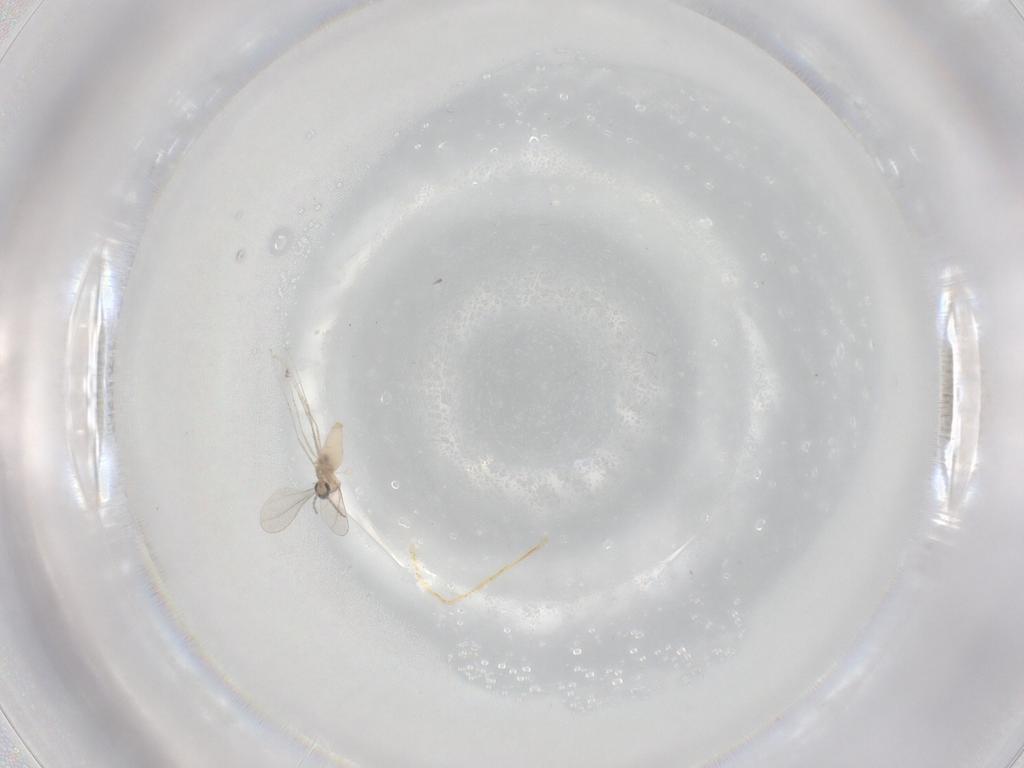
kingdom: Animalia
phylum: Arthropoda
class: Insecta
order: Diptera
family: Cecidomyiidae
